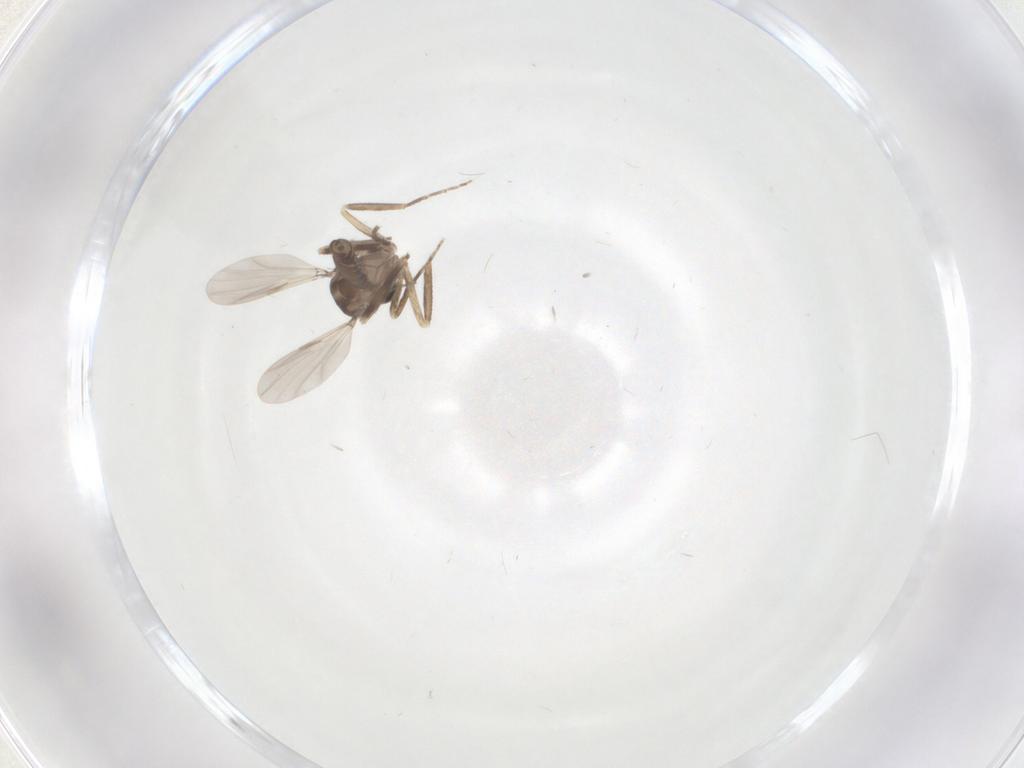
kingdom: Animalia
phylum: Arthropoda
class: Insecta
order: Diptera
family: Ceratopogonidae
